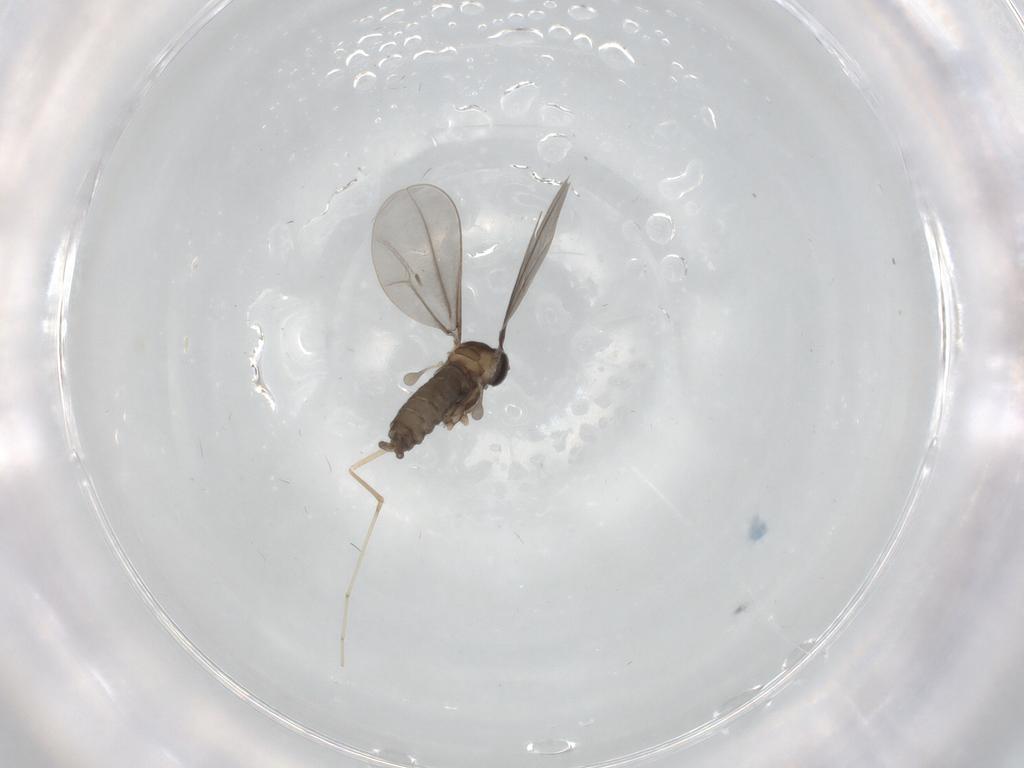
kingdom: Animalia
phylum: Arthropoda
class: Insecta
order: Diptera
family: Cecidomyiidae
